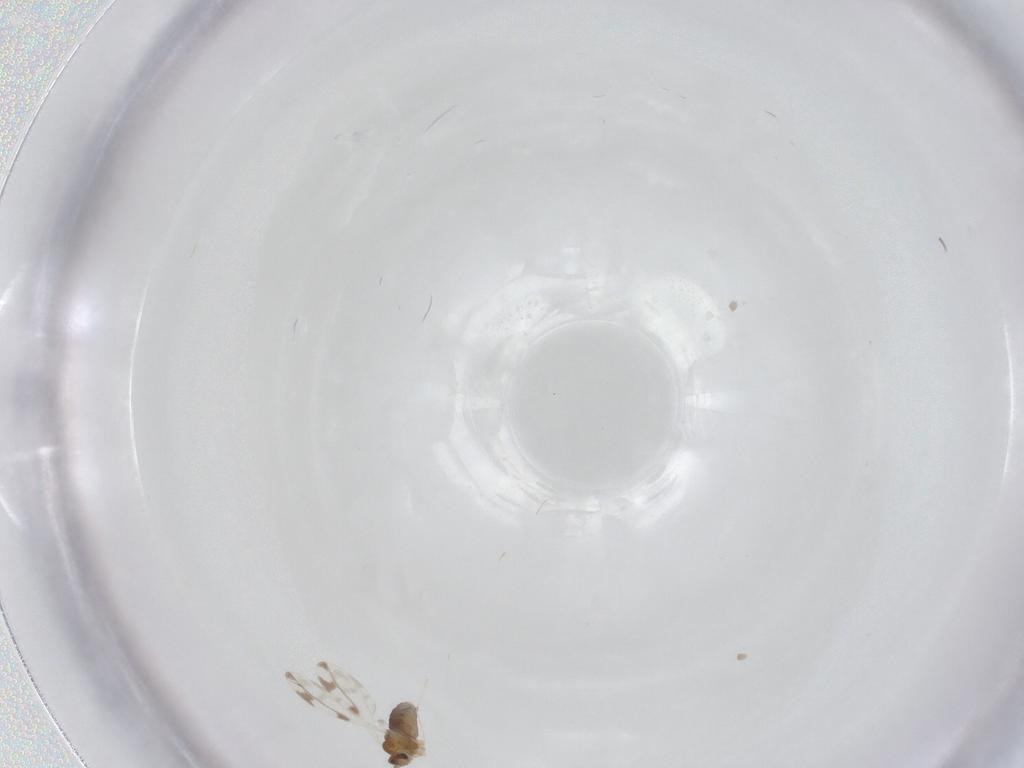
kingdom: Animalia
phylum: Arthropoda
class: Insecta
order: Diptera
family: Cecidomyiidae
